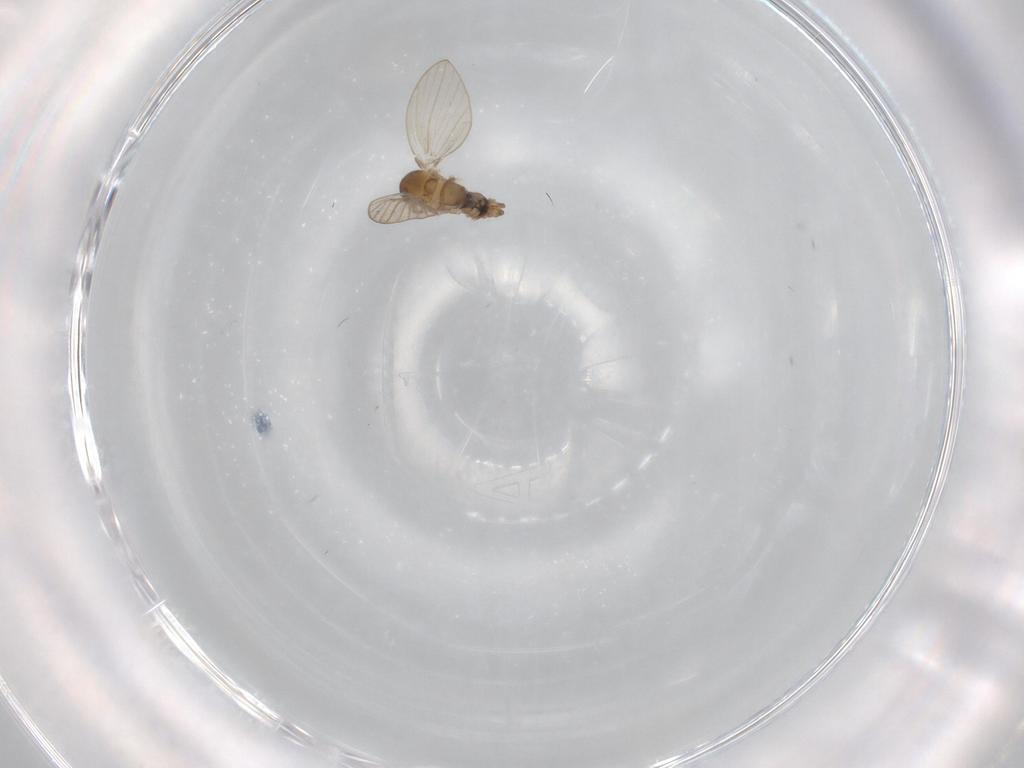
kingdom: Animalia
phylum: Arthropoda
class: Insecta
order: Diptera
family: Psychodidae
